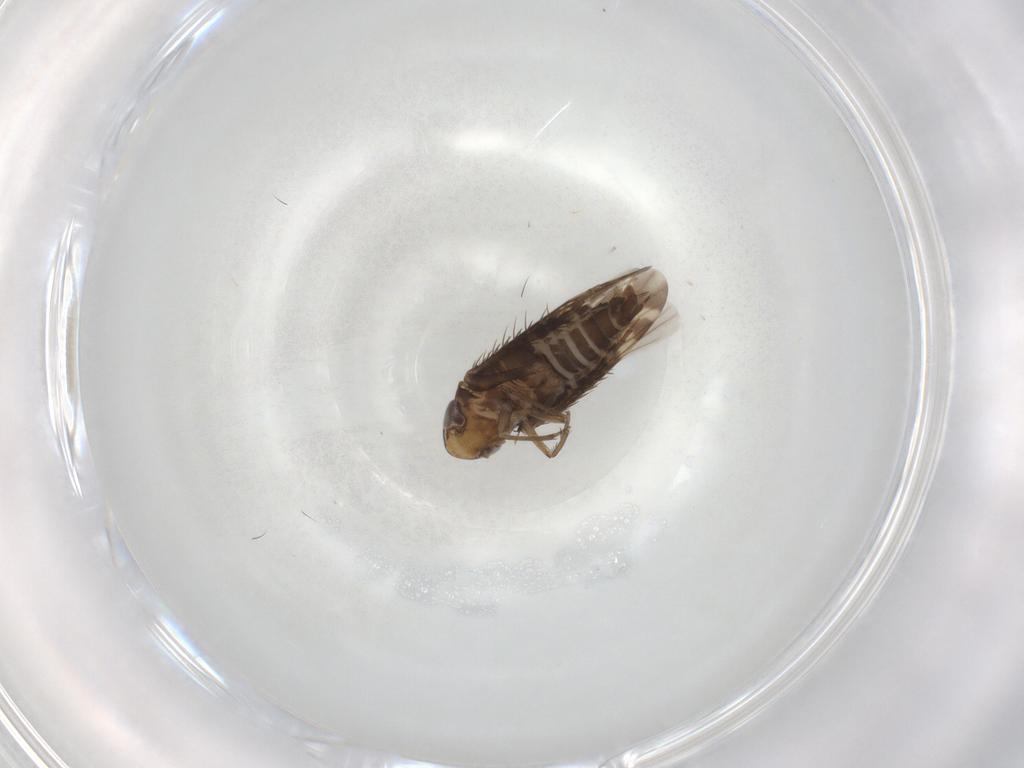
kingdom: Animalia
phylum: Arthropoda
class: Insecta
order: Hemiptera
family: Cicadellidae
